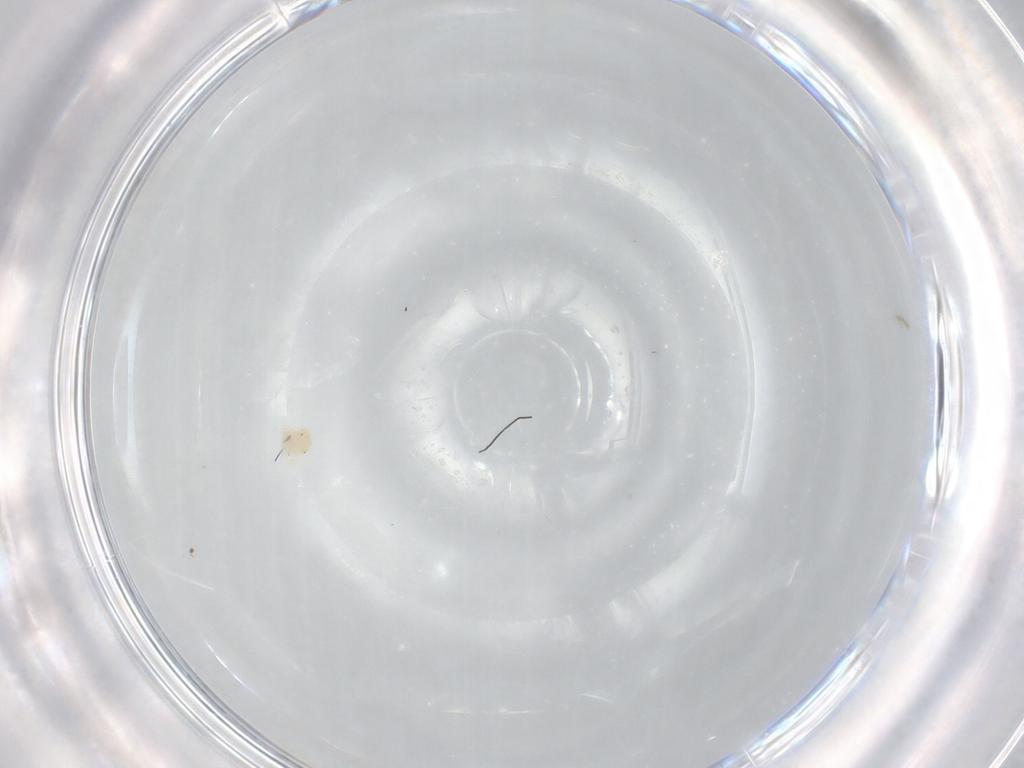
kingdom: Animalia
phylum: Arthropoda
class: Arachnida
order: Trombidiformes
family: Anystidae
